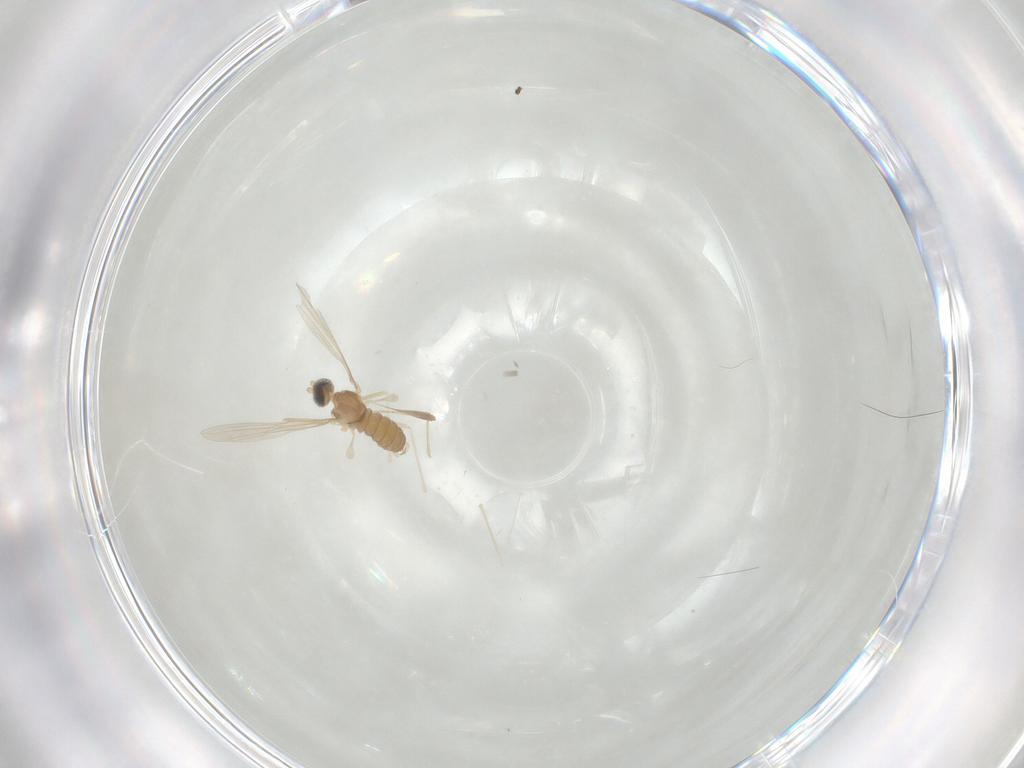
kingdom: Animalia
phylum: Arthropoda
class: Insecta
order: Diptera
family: Cecidomyiidae
